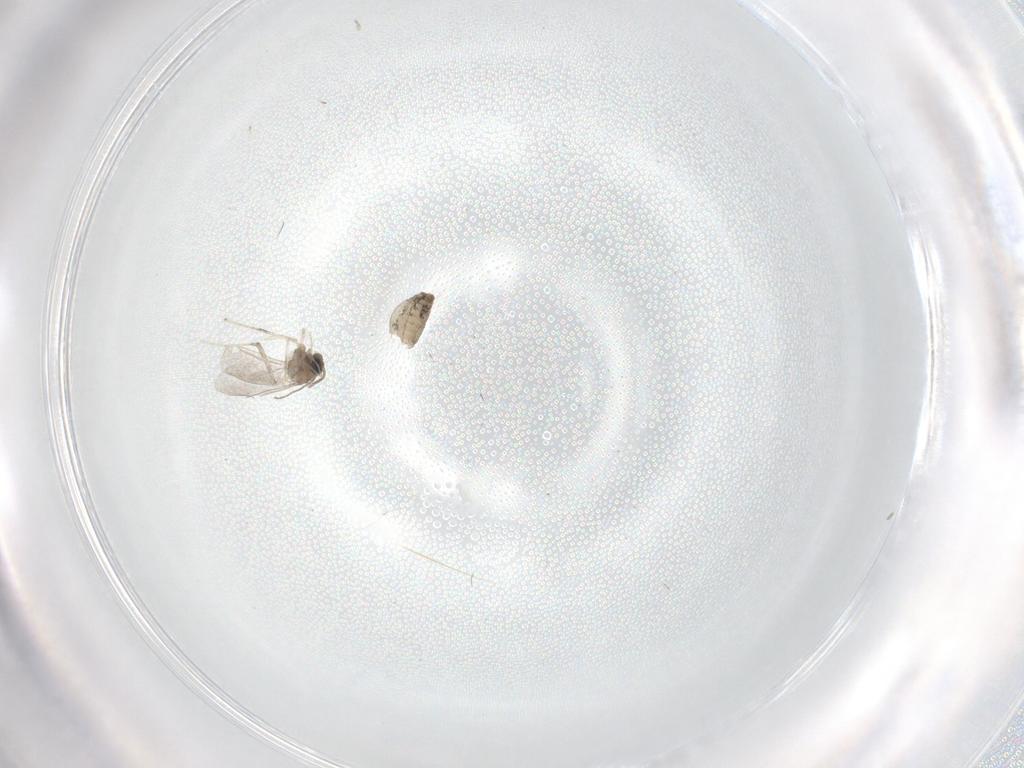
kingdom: Animalia
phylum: Arthropoda
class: Insecta
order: Diptera
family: Cecidomyiidae
